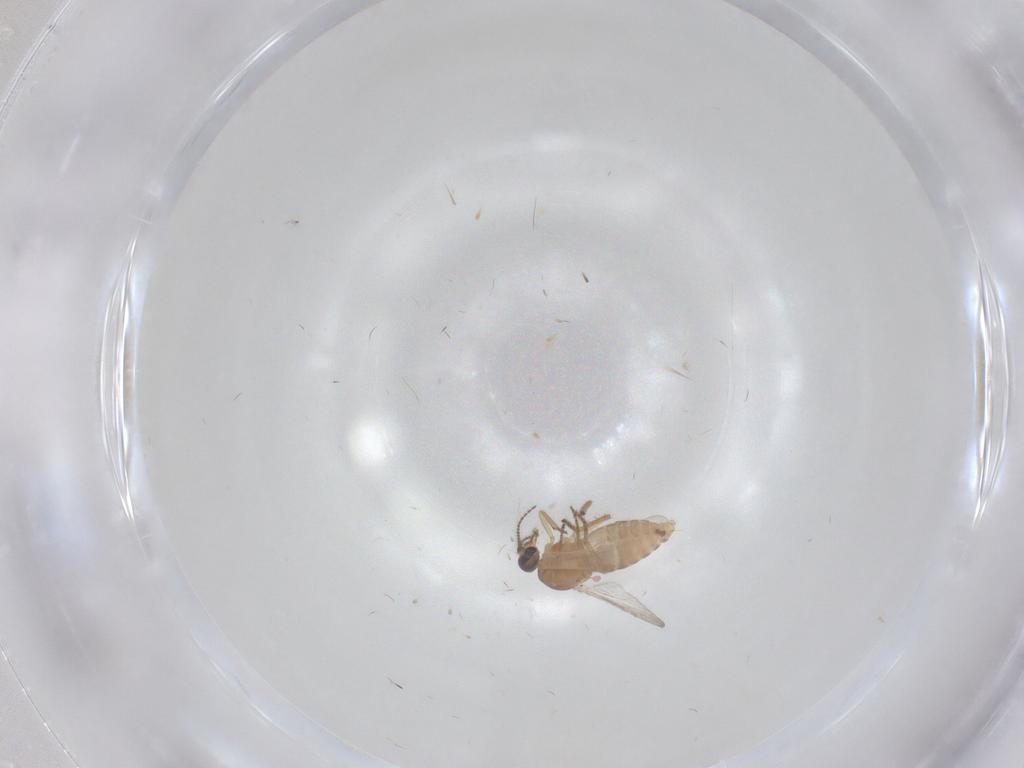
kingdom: Animalia
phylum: Arthropoda
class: Insecta
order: Diptera
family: Ceratopogonidae
